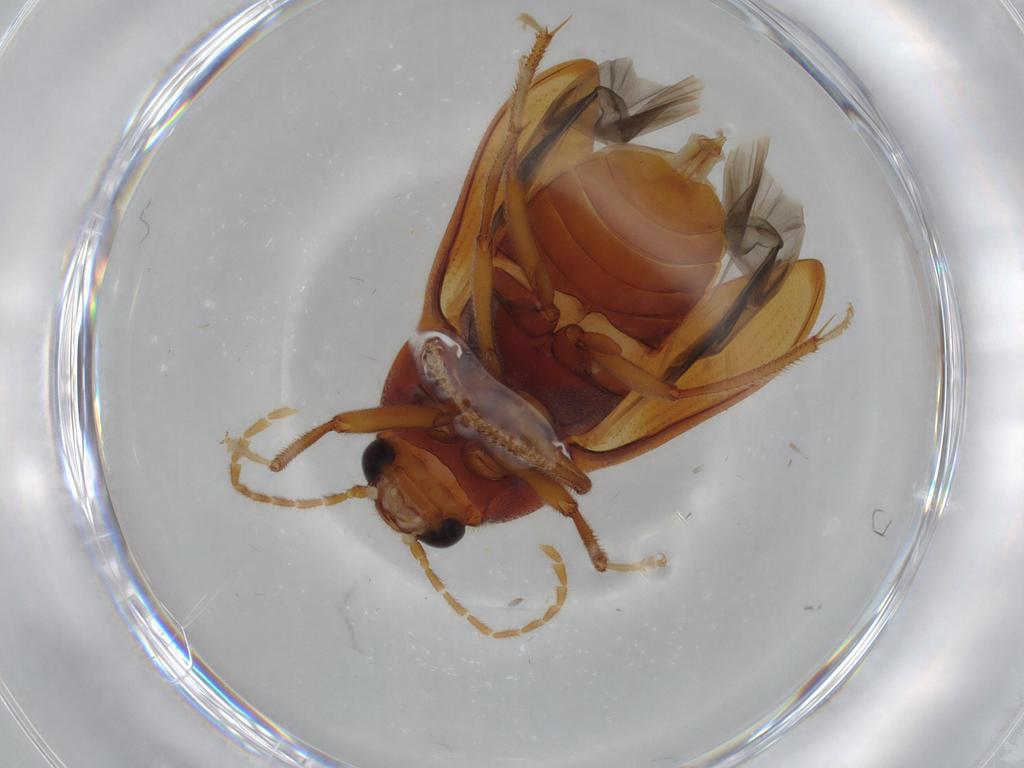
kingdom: Animalia
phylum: Arthropoda
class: Insecta
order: Coleoptera
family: Ptilodactylidae
